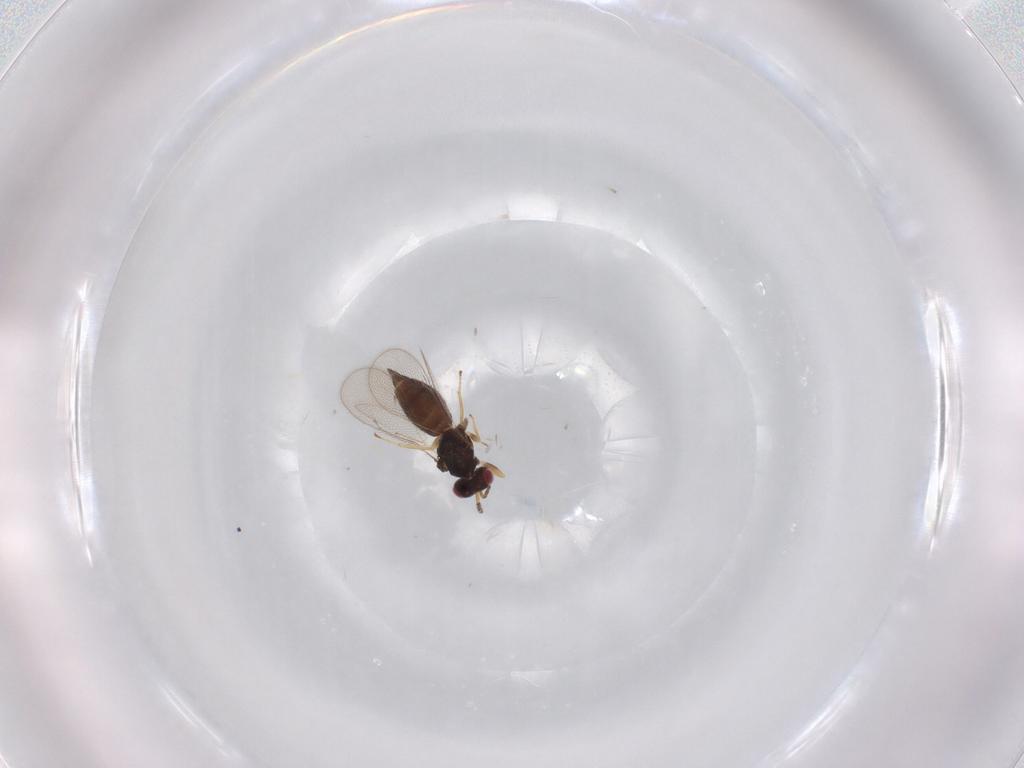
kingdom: Animalia
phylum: Arthropoda
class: Insecta
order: Hymenoptera
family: Eulophidae
